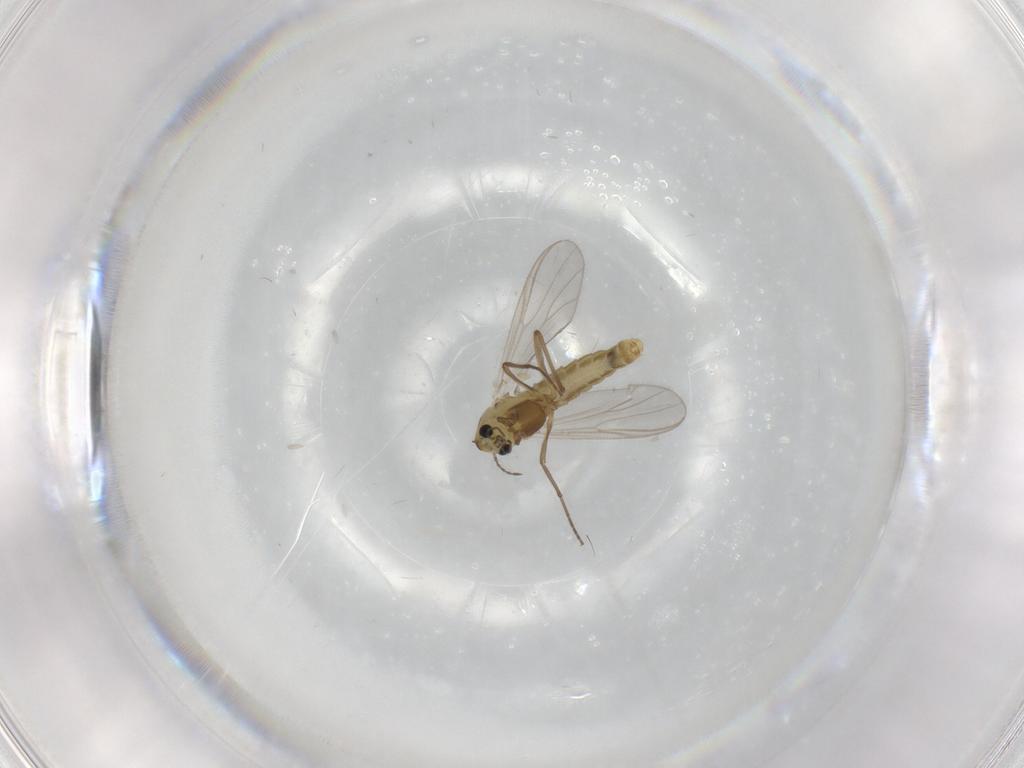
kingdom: Animalia
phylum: Arthropoda
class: Insecta
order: Diptera
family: Chironomidae
